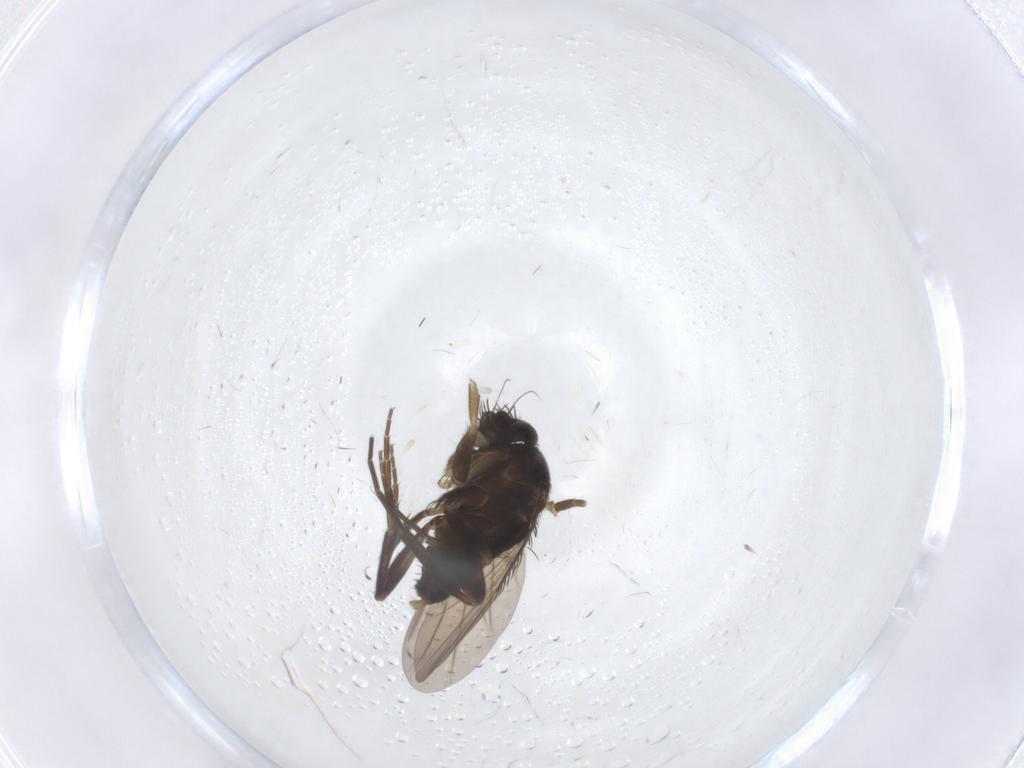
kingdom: Animalia
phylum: Arthropoda
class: Insecta
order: Diptera
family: Phoridae
